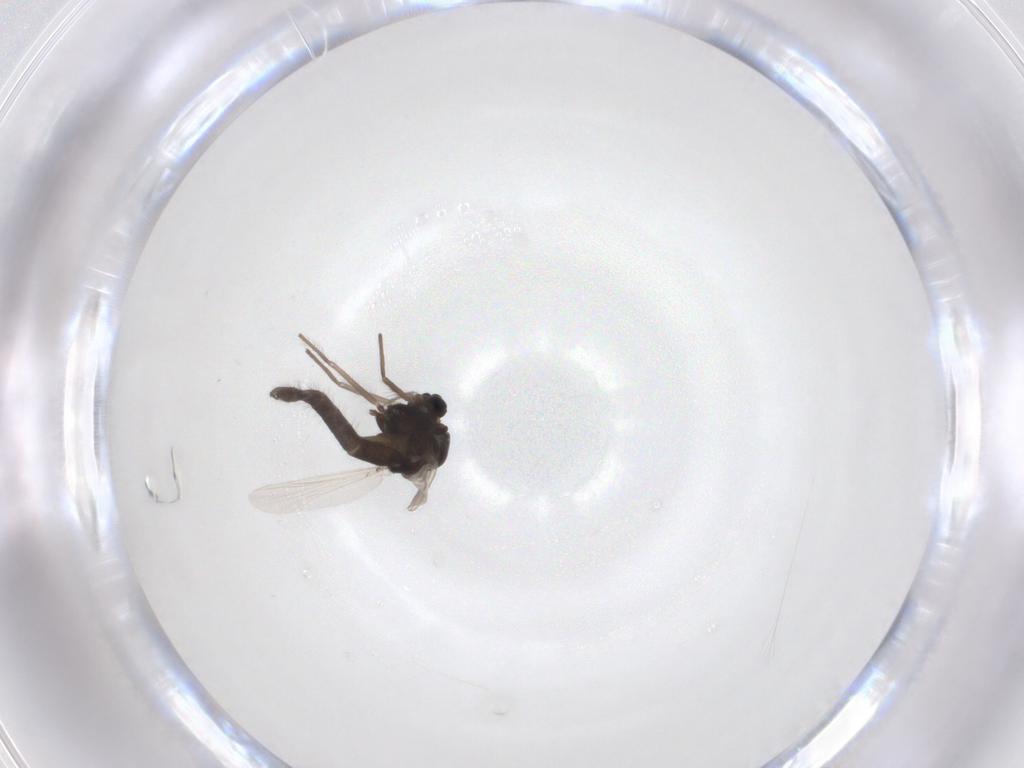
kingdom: Animalia
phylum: Arthropoda
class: Insecta
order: Diptera
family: Chironomidae
